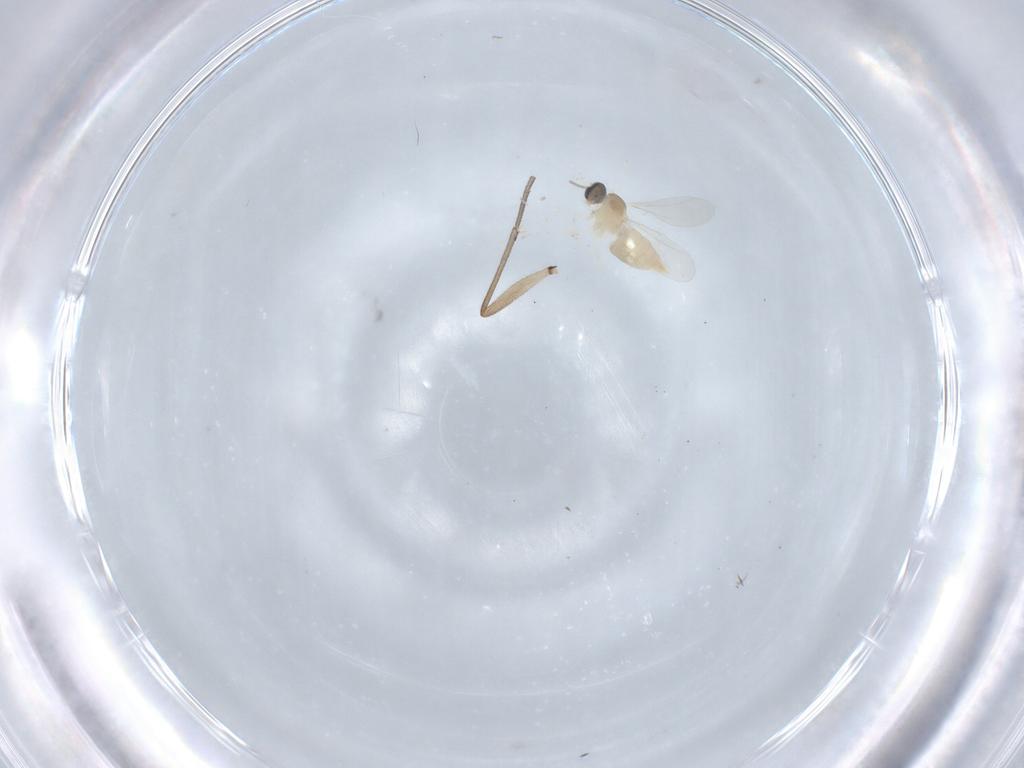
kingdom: Animalia
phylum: Arthropoda
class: Insecta
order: Diptera
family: Cecidomyiidae
